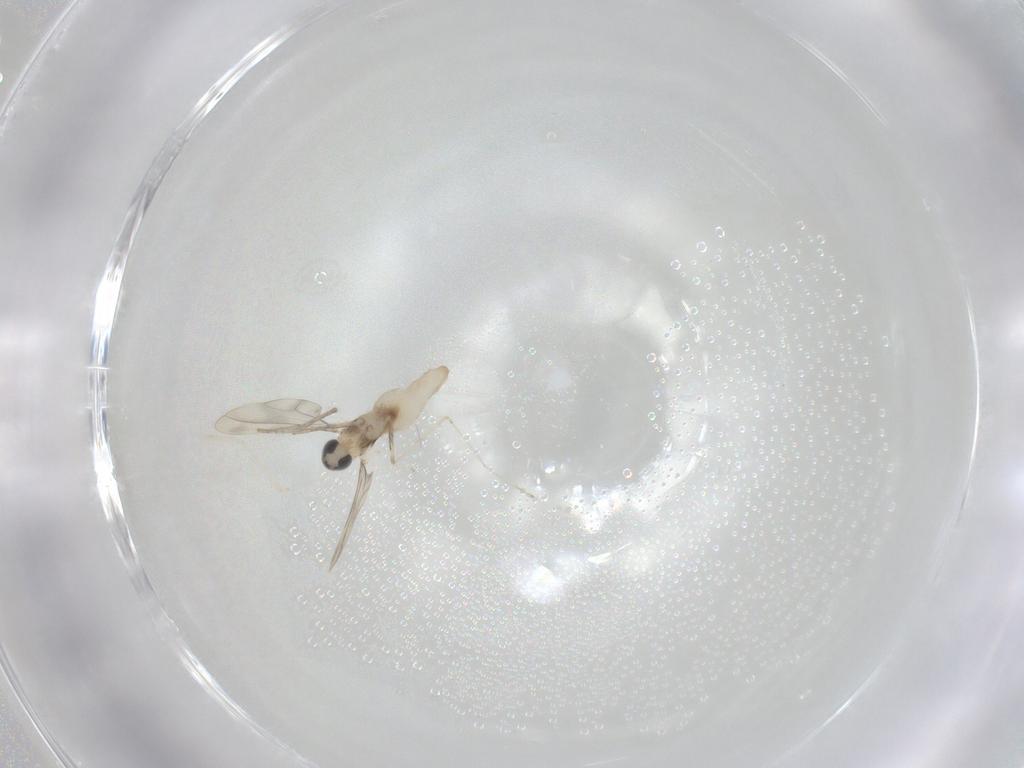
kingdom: Animalia
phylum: Arthropoda
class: Insecta
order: Diptera
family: Cecidomyiidae
